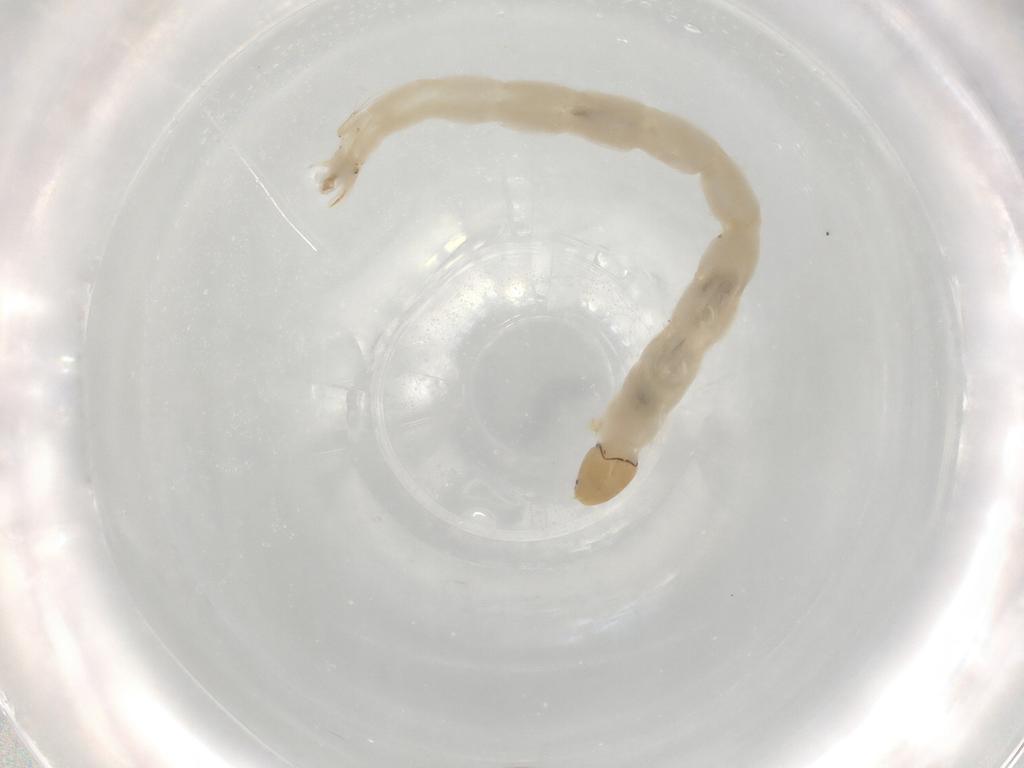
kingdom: Animalia
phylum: Arthropoda
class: Insecta
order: Diptera
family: Chironomidae
